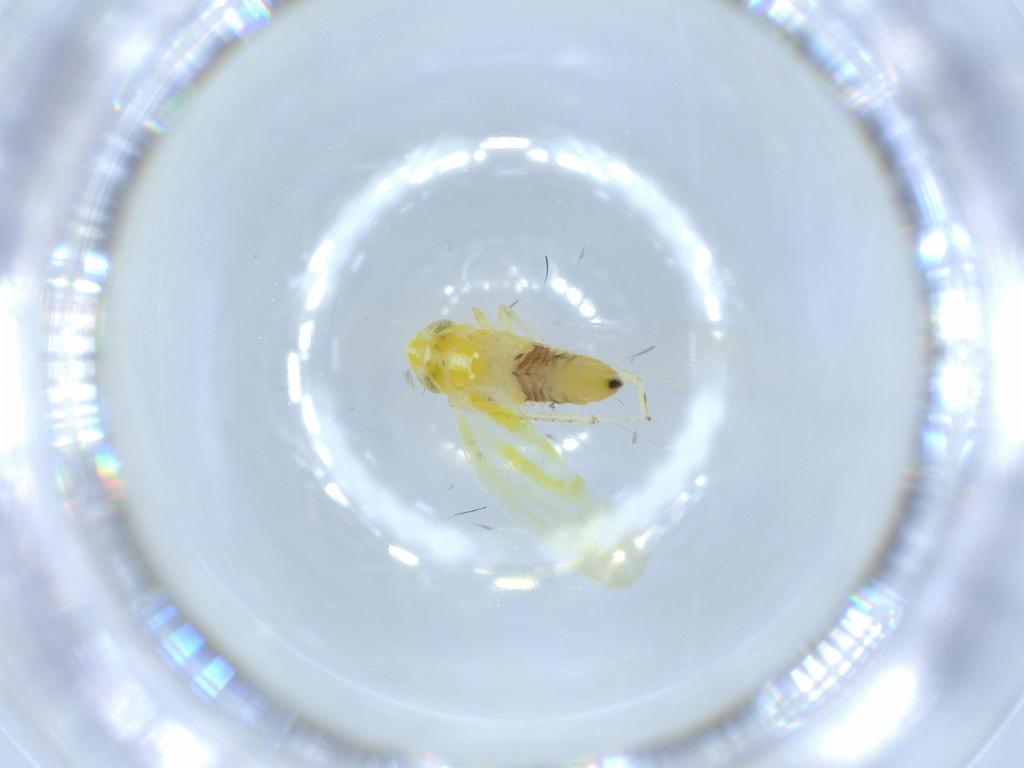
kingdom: Animalia
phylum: Arthropoda
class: Insecta
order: Hemiptera
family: Cicadellidae
